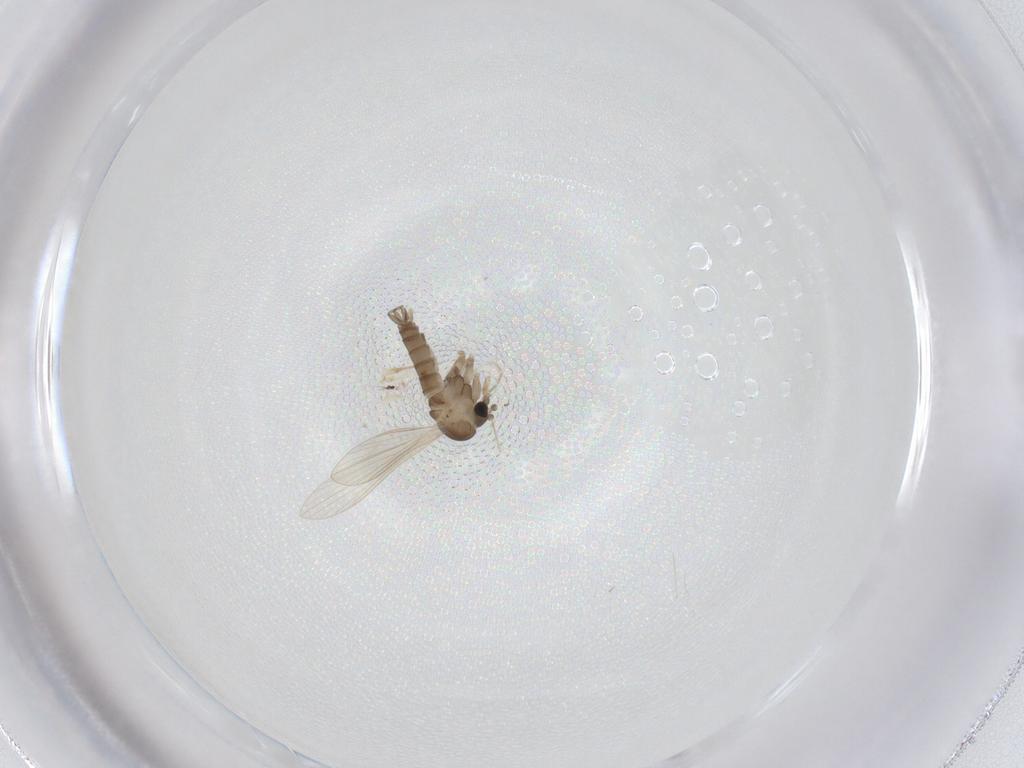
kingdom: Animalia
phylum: Arthropoda
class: Insecta
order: Diptera
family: Psychodidae
